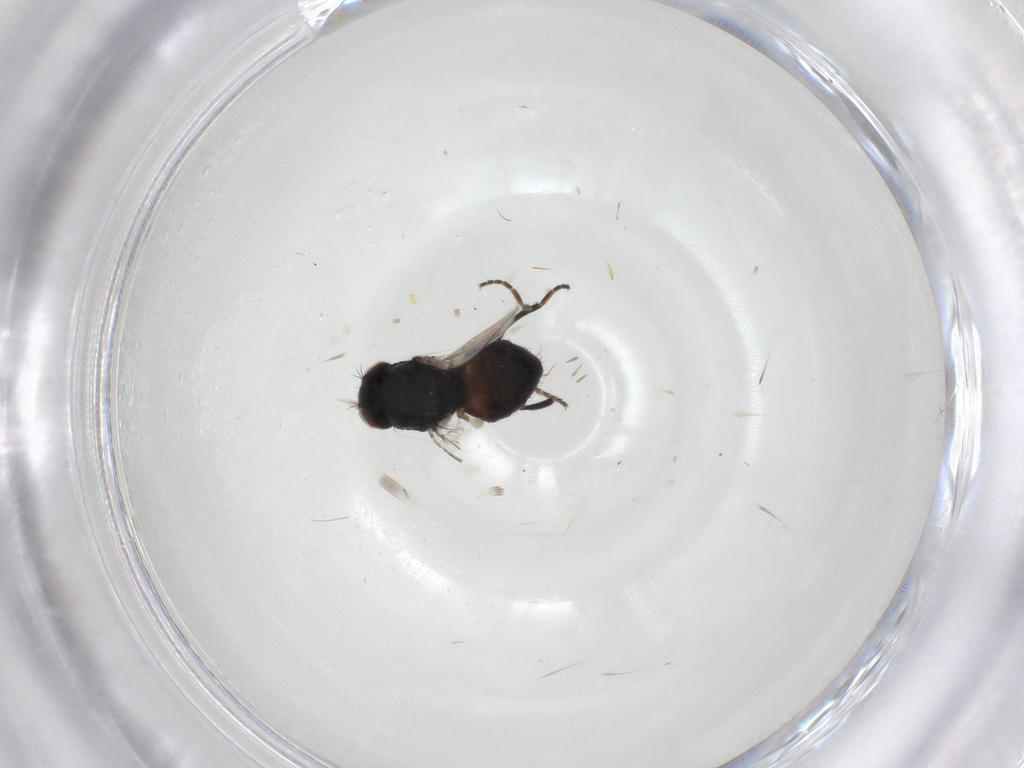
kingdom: Animalia
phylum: Arthropoda
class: Insecta
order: Diptera
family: Milichiidae
